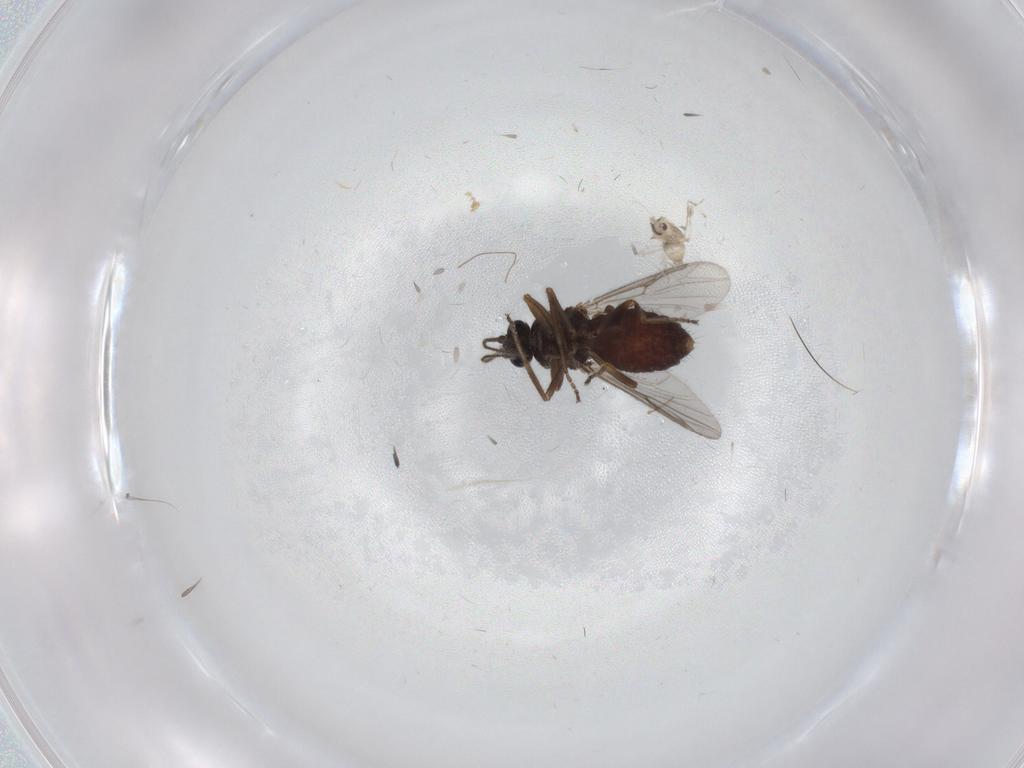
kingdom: Animalia
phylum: Arthropoda
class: Insecta
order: Diptera
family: Ceratopogonidae
